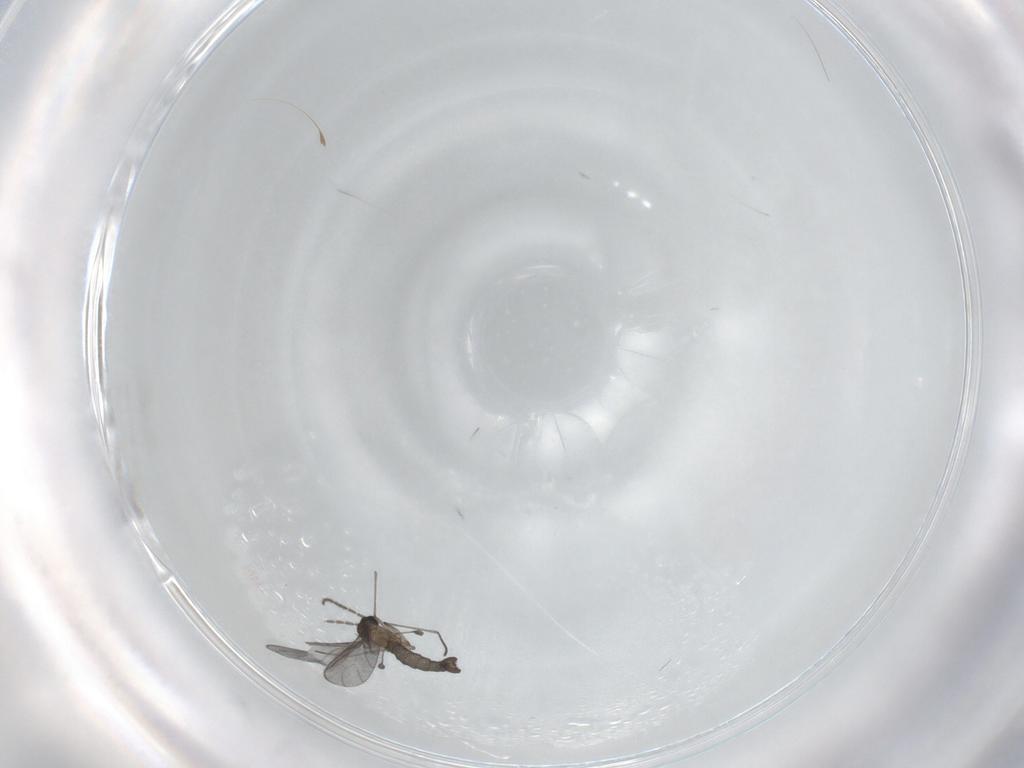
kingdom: Animalia
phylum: Arthropoda
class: Insecta
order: Diptera
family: Sciaridae
